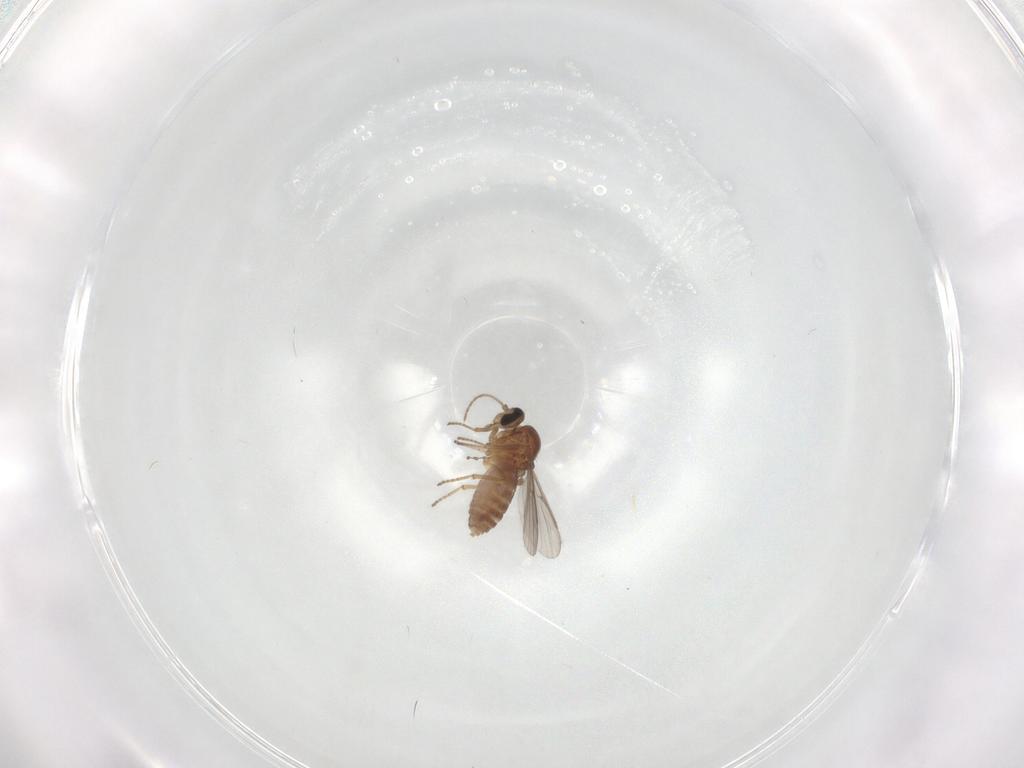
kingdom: Animalia
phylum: Arthropoda
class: Insecta
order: Diptera
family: Ceratopogonidae
